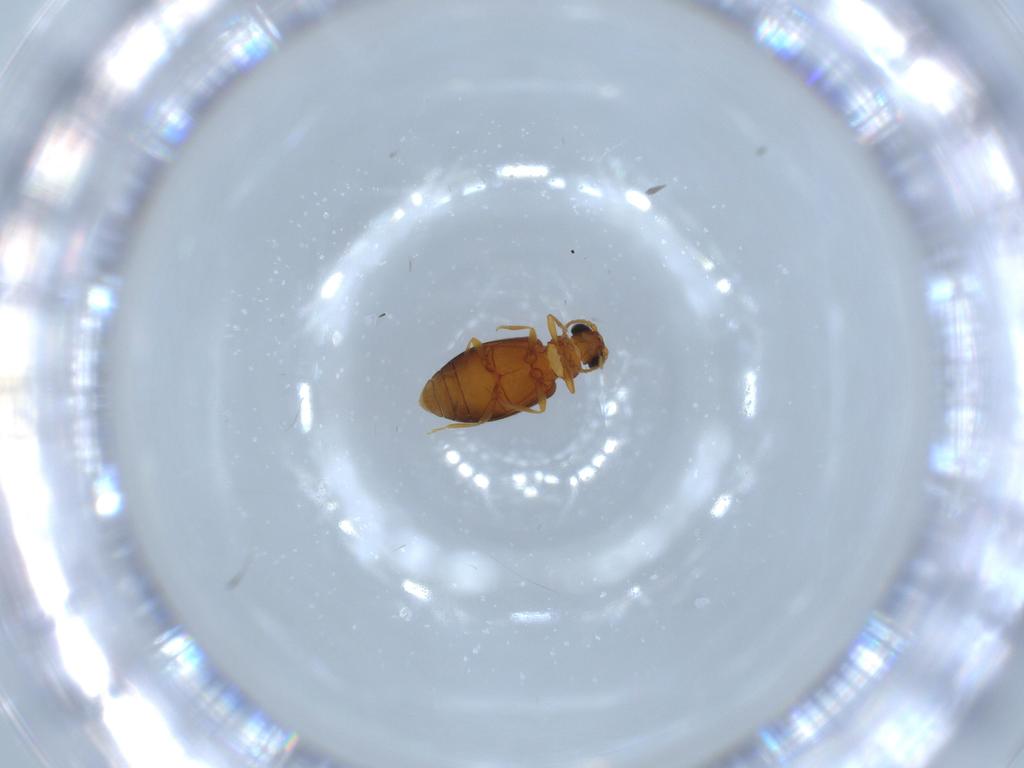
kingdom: Animalia
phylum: Arthropoda
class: Insecta
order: Coleoptera
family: Aderidae
